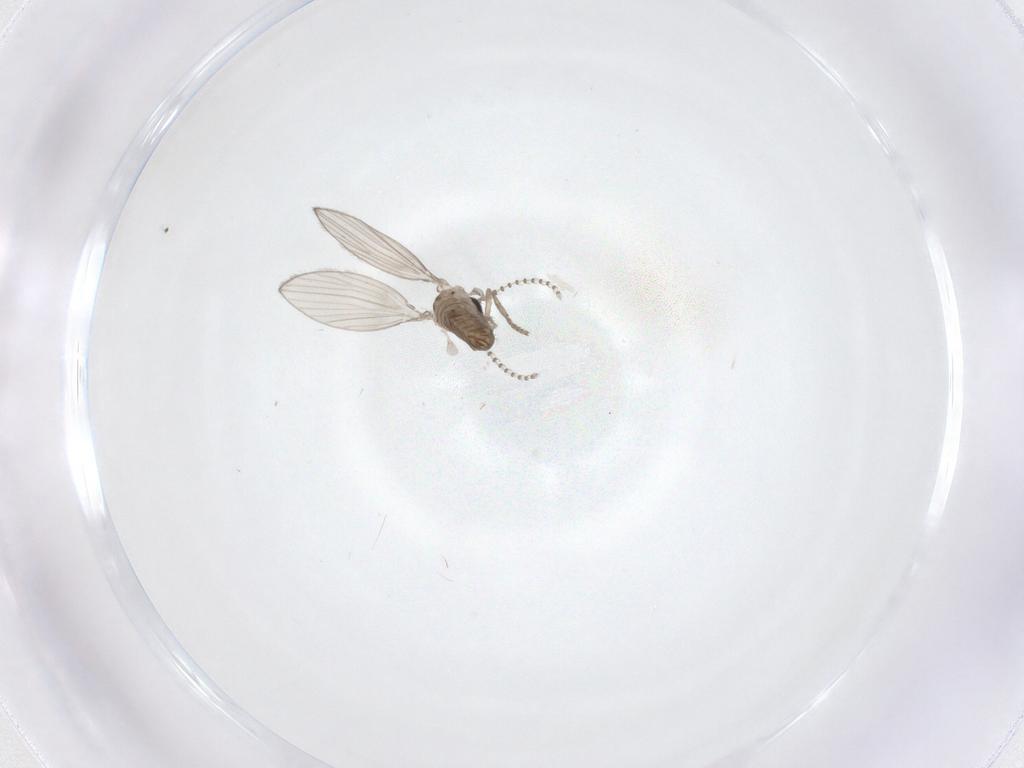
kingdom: Animalia
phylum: Arthropoda
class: Insecta
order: Diptera
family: Psychodidae
